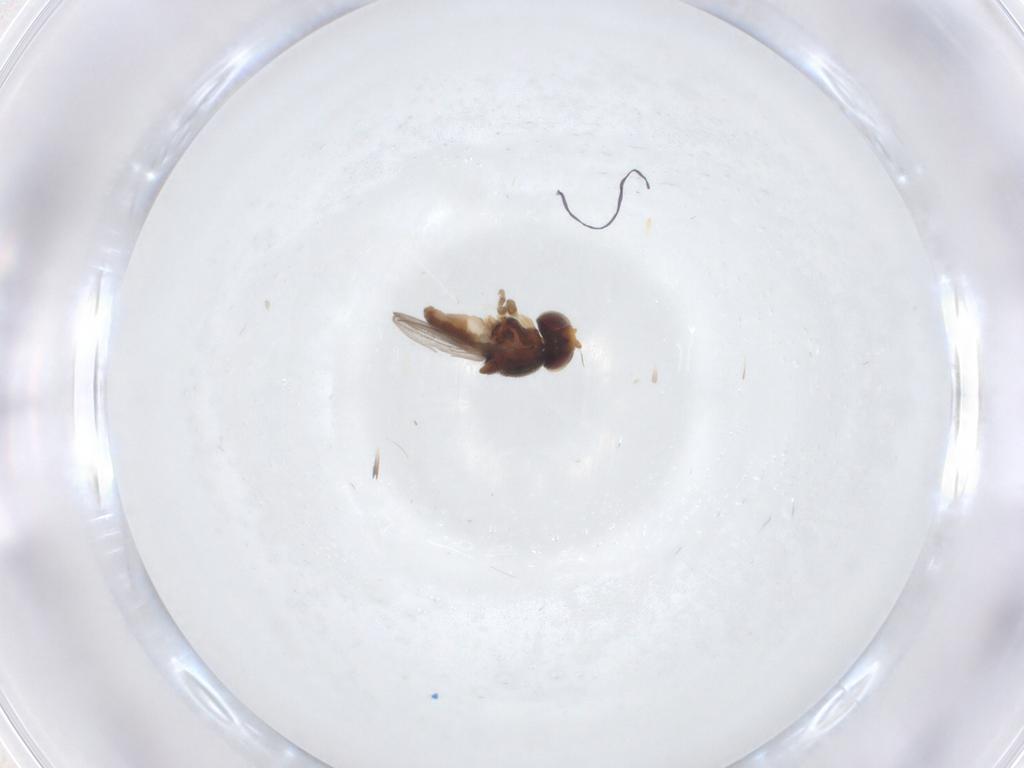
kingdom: Animalia
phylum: Arthropoda
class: Insecta
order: Diptera
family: Chloropidae
